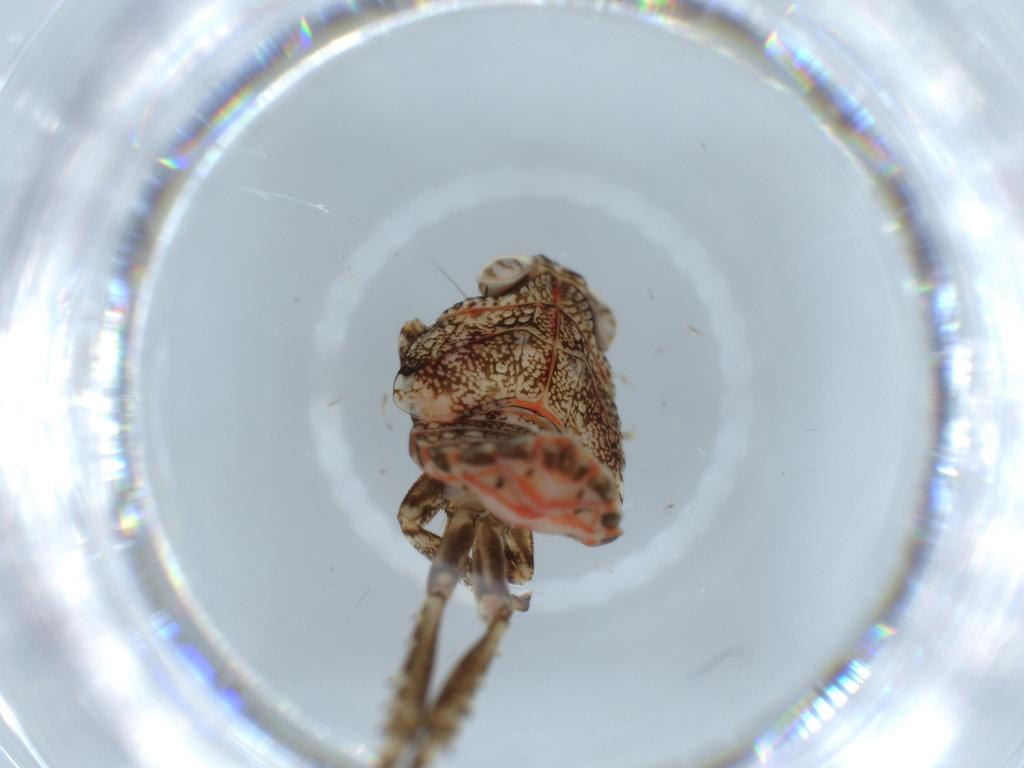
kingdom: Animalia
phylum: Arthropoda
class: Insecta
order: Hemiptera
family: Issidae
